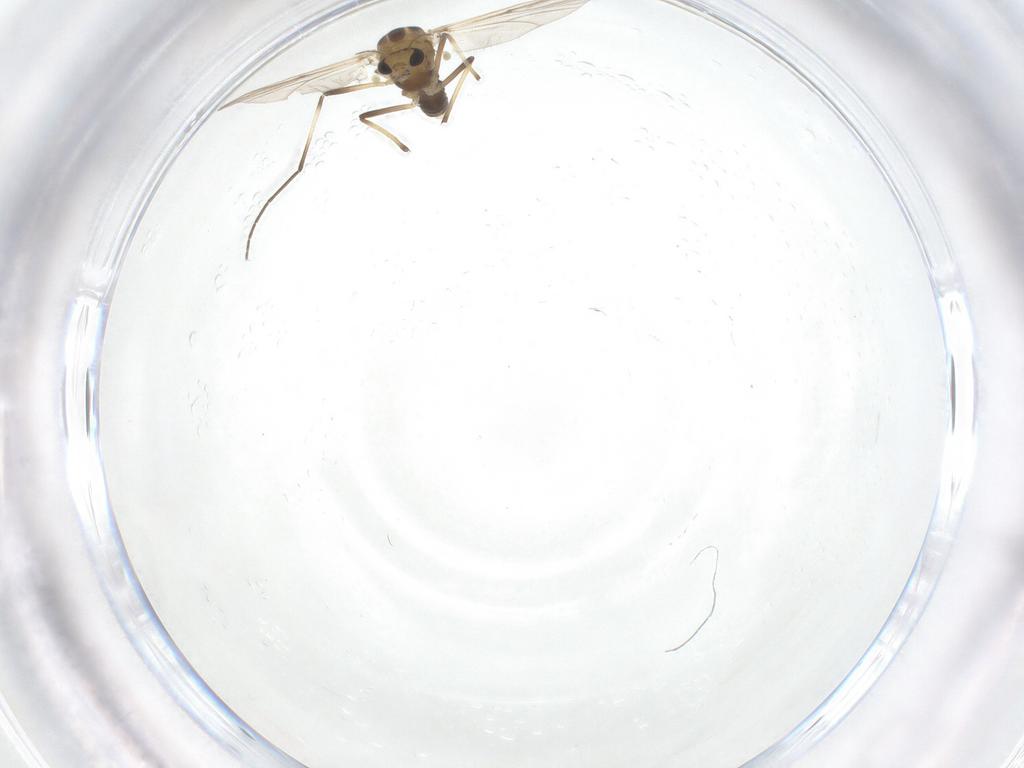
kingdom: Animalia
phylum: Arthropoda
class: Insecta
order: Diptera
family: Chironomidae
